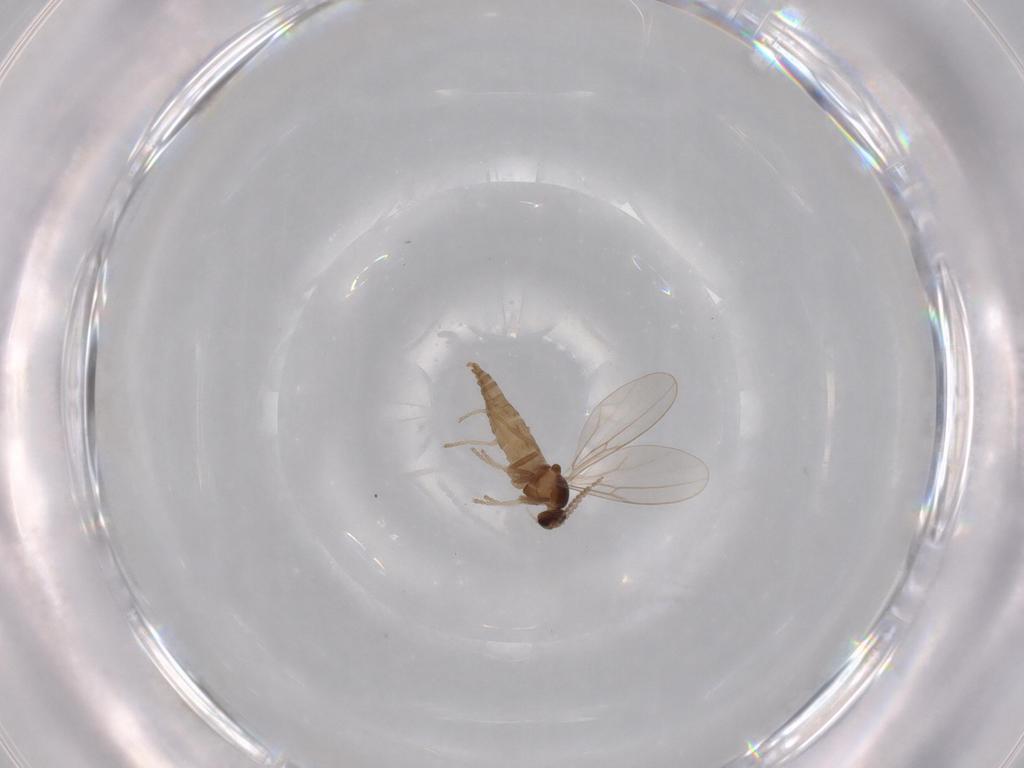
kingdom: Animalia
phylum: Arthropoda
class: Insecta
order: Diptera
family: Cecidomyiidae
